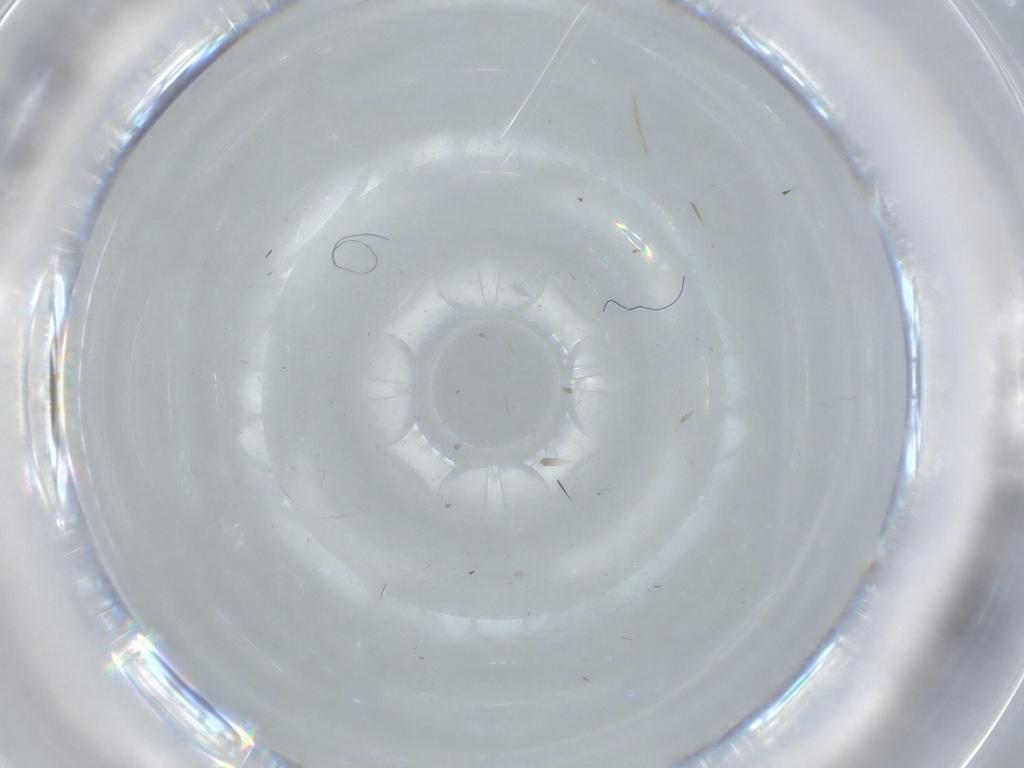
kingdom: Animalia
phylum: Arthropoda
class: Insecta
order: Diptera
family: Cecidomyiidae
